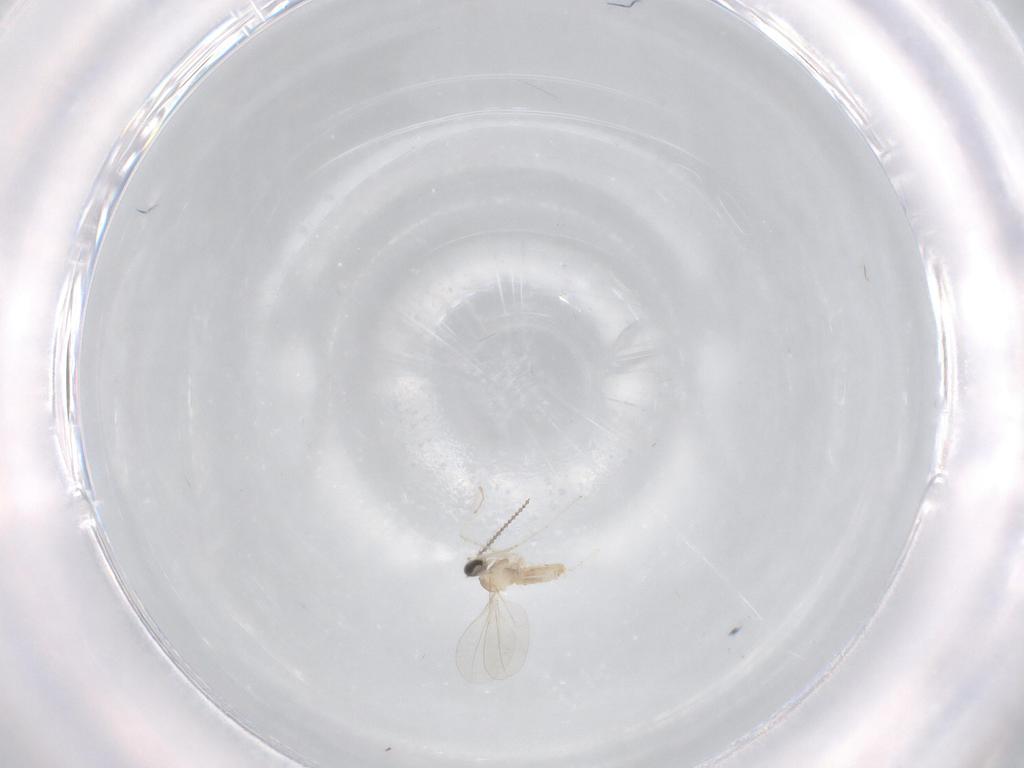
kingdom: Animalia
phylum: Arthropoda
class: Insecta
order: Diptera
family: Cecidomyiidae
